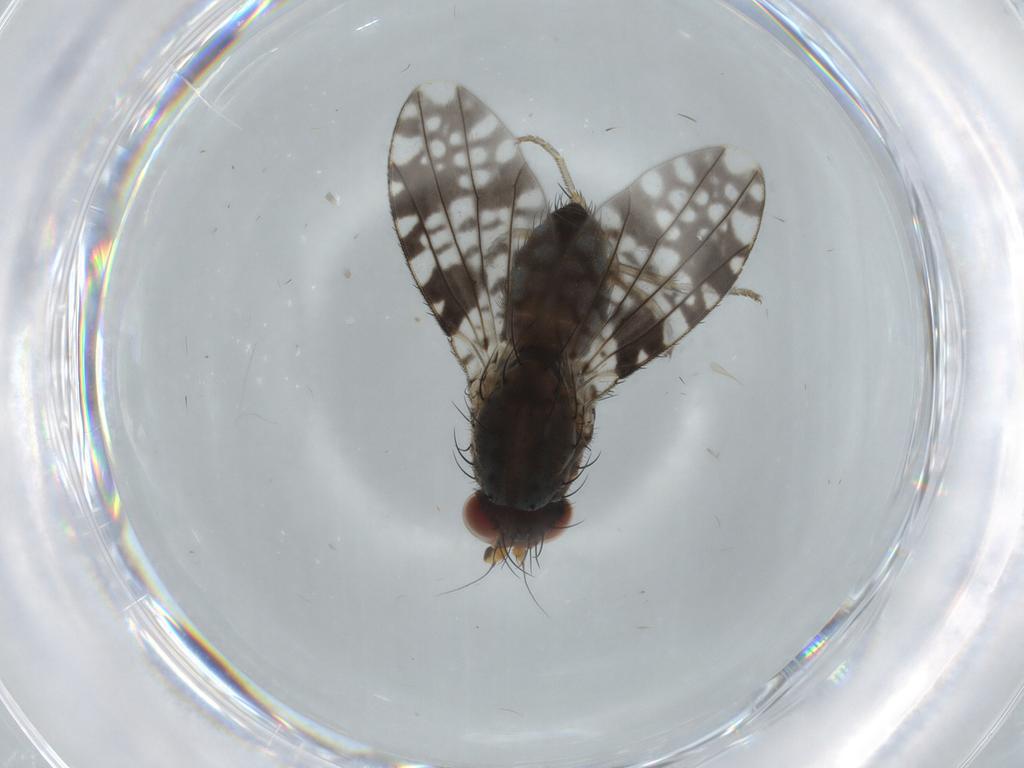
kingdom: Animalia
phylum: Arthropoda
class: Insecta
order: Diptera
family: Tephritidae
